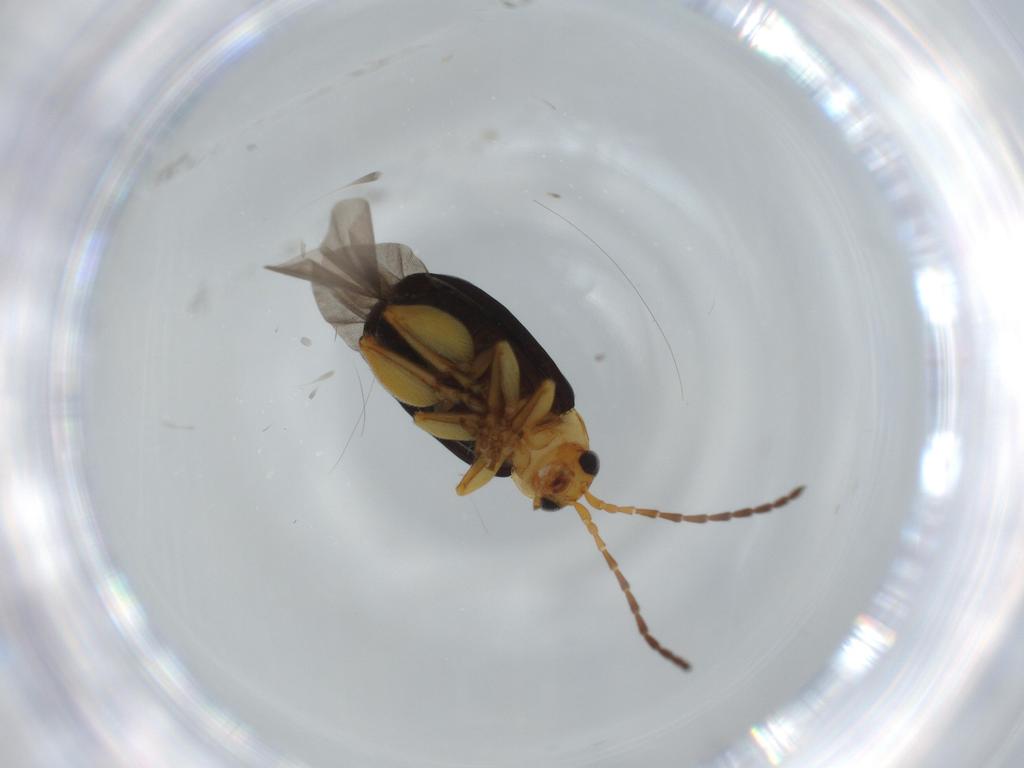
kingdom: Animalia
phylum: Arthropoda
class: Insecta
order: Coleoptera
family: Chrysomelidae
